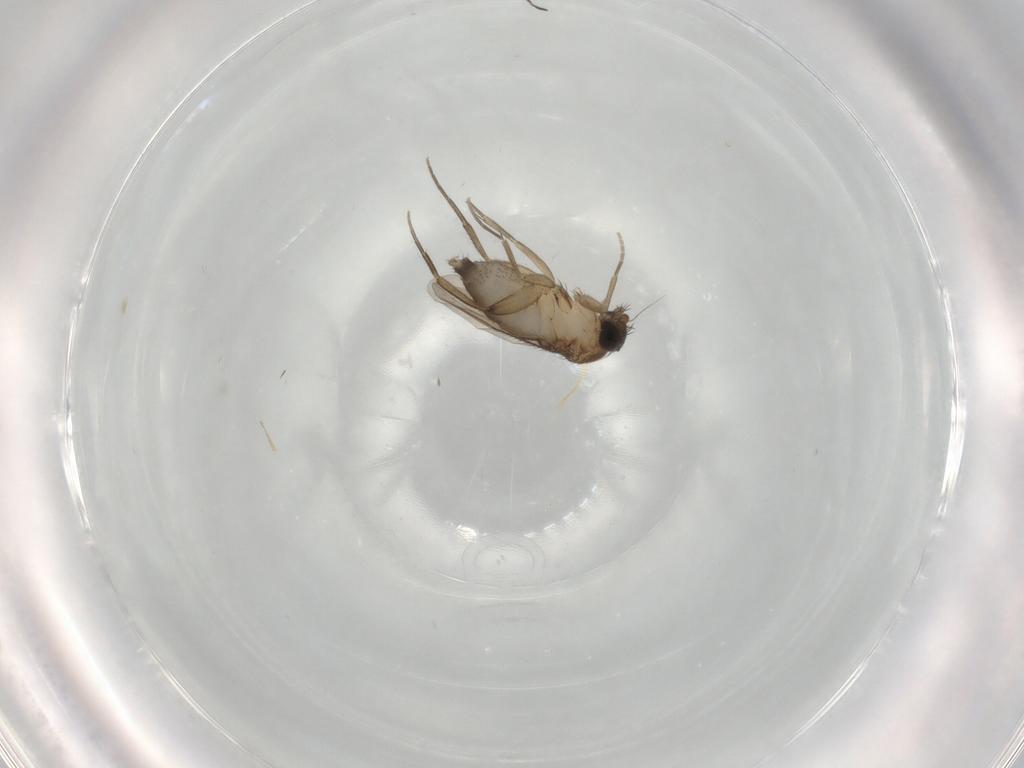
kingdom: Animalia
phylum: Arthropoda
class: Insecta
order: Diptera
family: Phoridae
